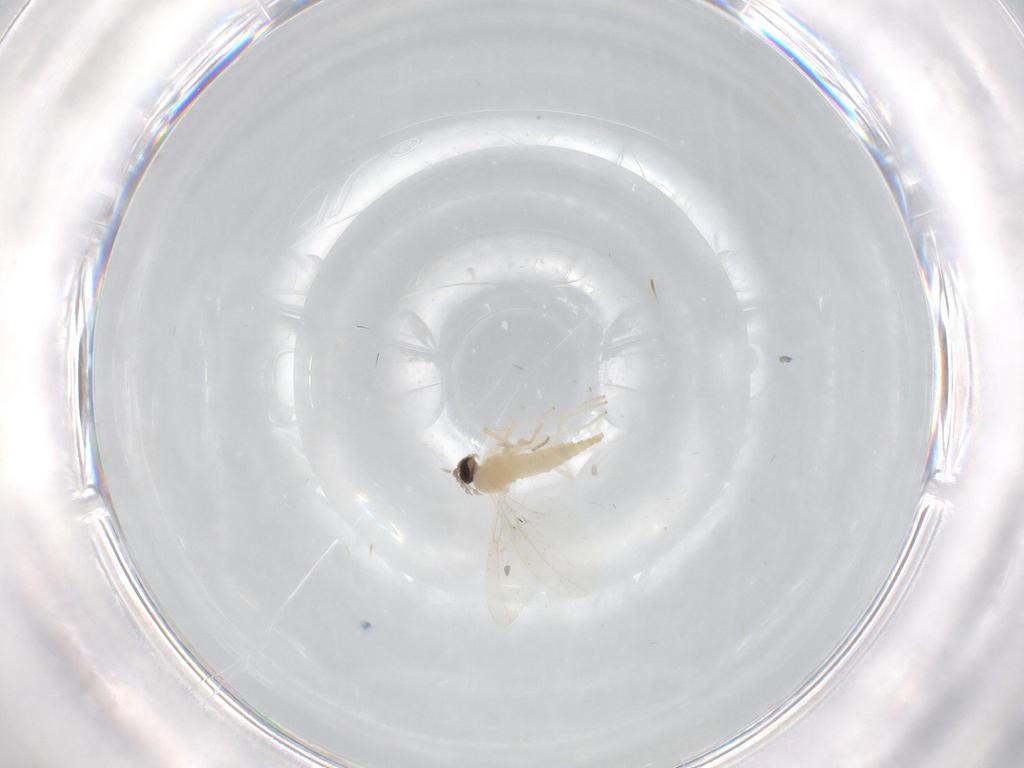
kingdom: Animalia
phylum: Arthropoda
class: Insecta
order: Diptera
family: Cecidomyiidae
